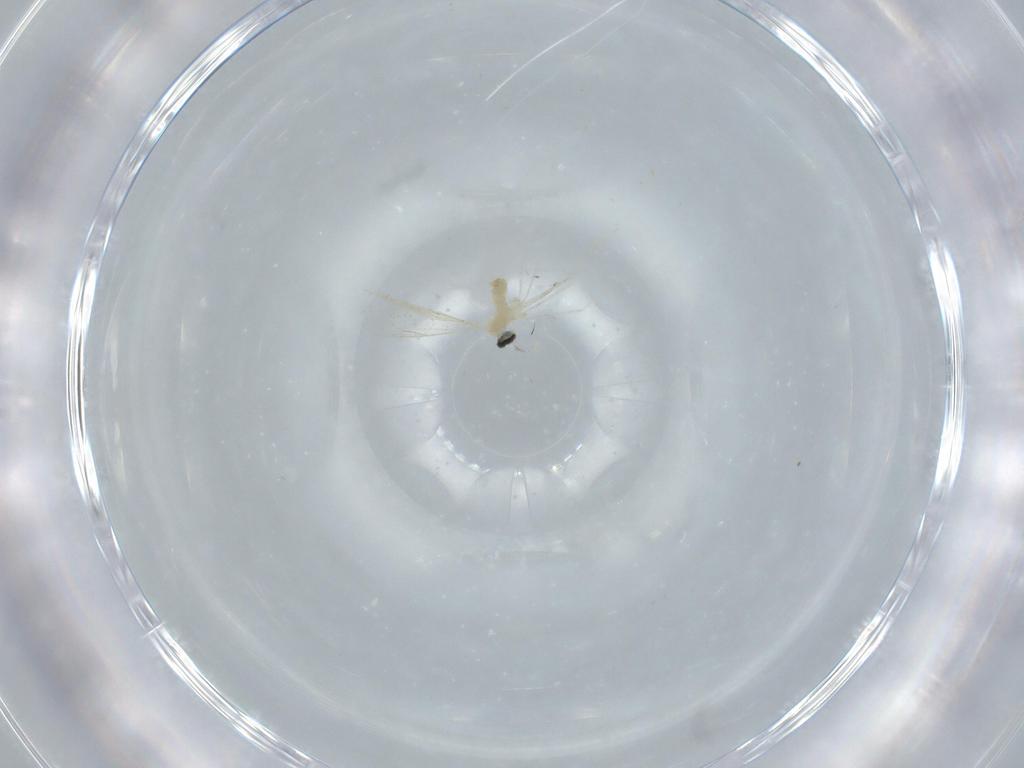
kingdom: Animalia
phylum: Arthropoda
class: Insecta
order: Diptera
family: Cecidomyiidae
